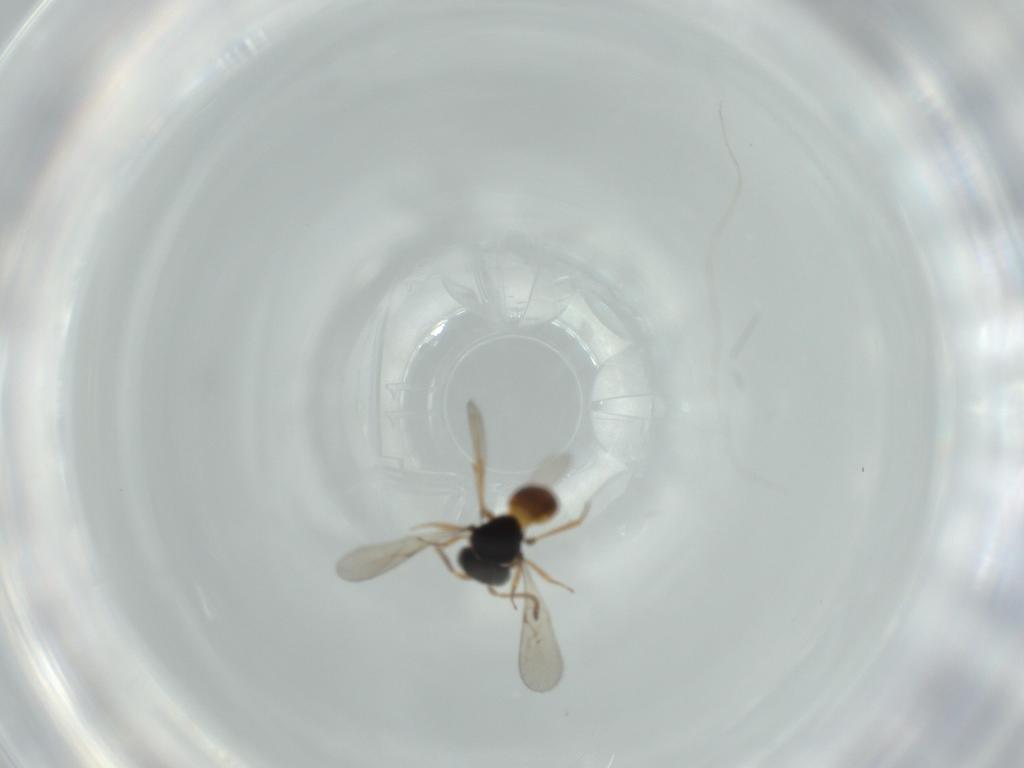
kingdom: Animalia
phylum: Arthropoda
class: Insecta
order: Hymenoptera
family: Scelionidae
